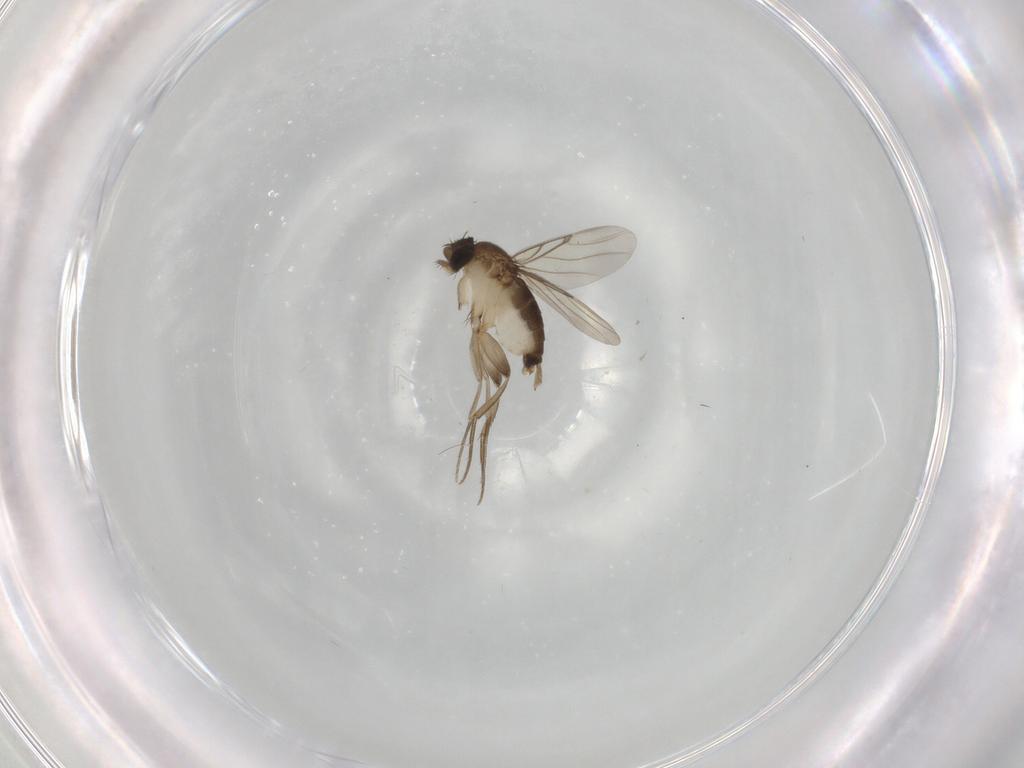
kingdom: Animalia
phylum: Arthropoda
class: Insecta
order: Diptera
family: Phoridae
